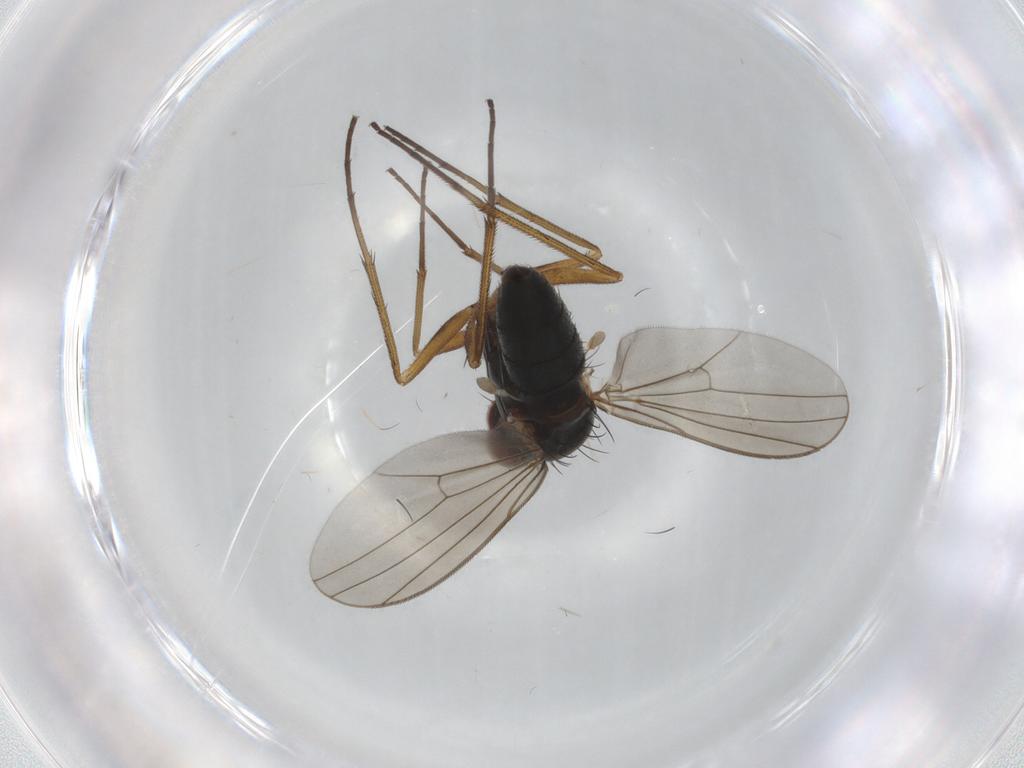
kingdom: Animalia
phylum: Arthropoda
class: Insecta
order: Diptera
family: Dolichopodidae
